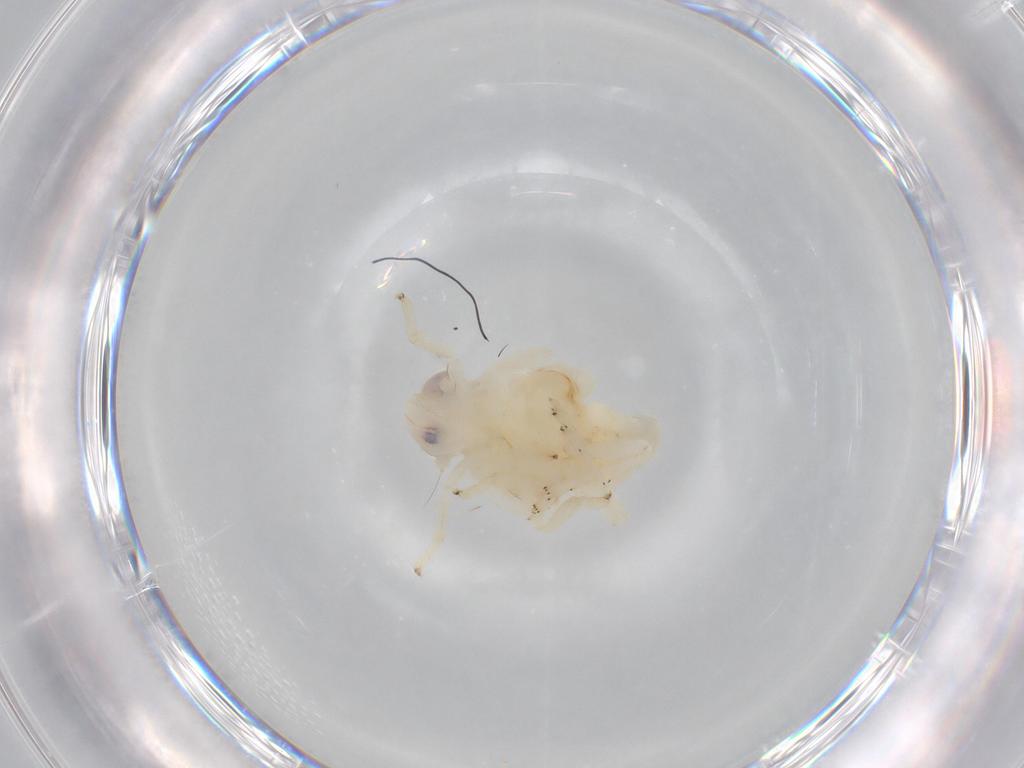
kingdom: Animalia
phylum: Arthropoda
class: Insecta
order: Hemiptera
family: Nogodinidae
